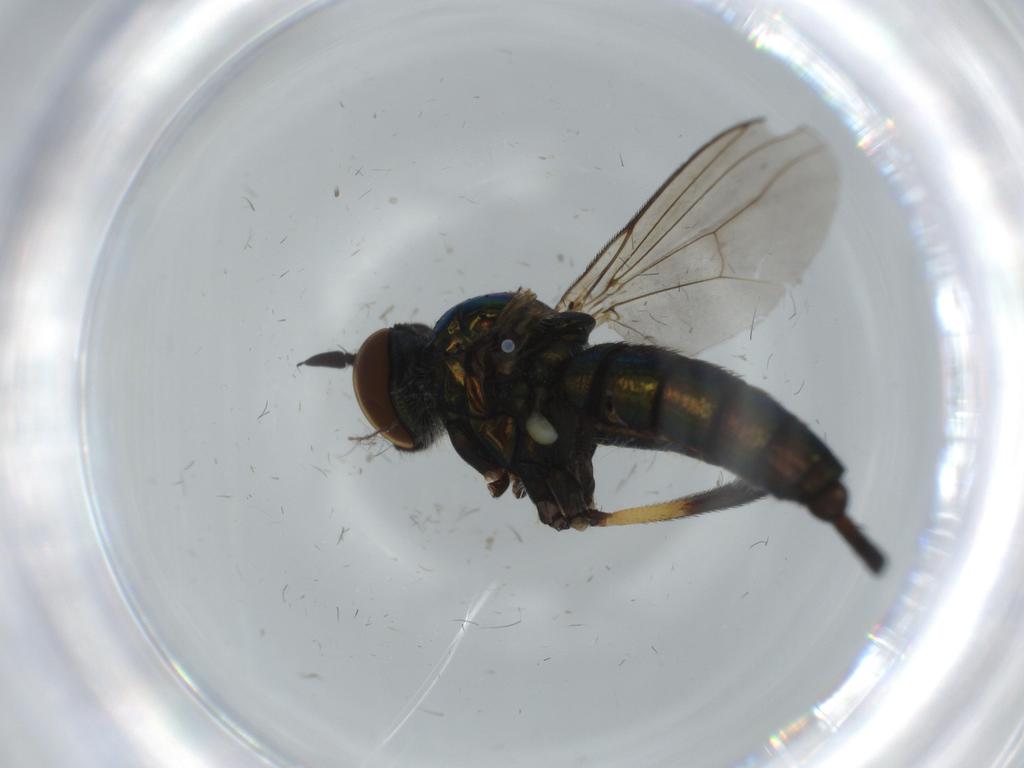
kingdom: Animalia
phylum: Arthropoda
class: Insecta
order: Diptera
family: Dolichopodidae
